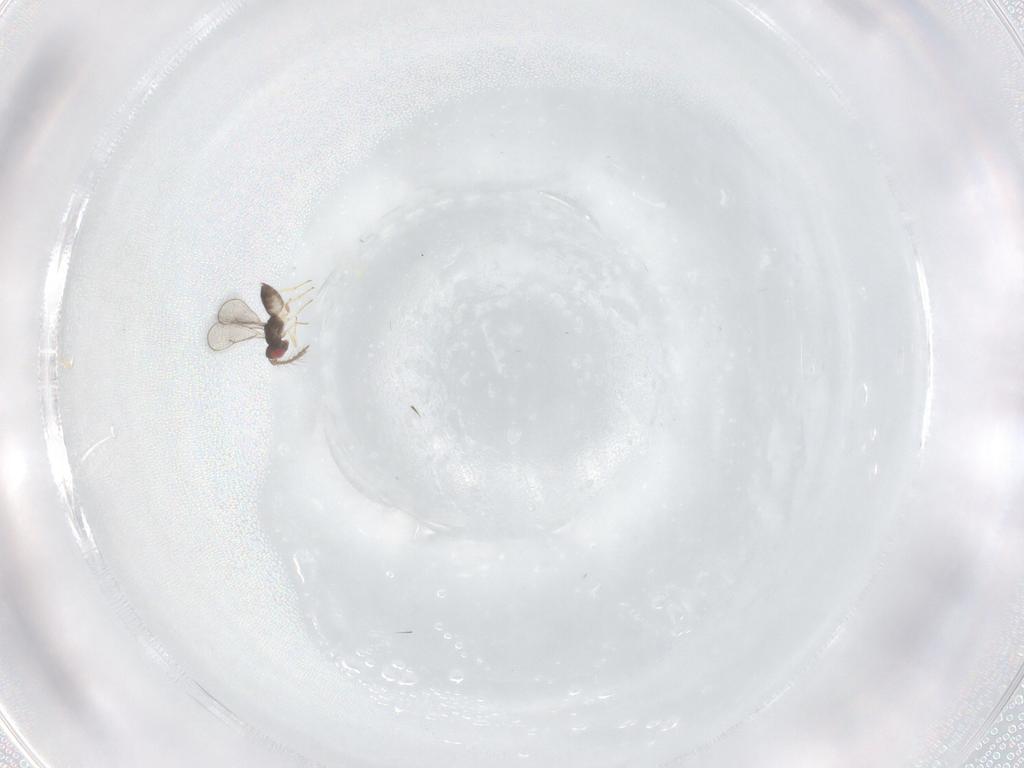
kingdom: Animalia
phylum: Arthropoda
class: Insecta
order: Hymenoptera
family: Eulophidae
